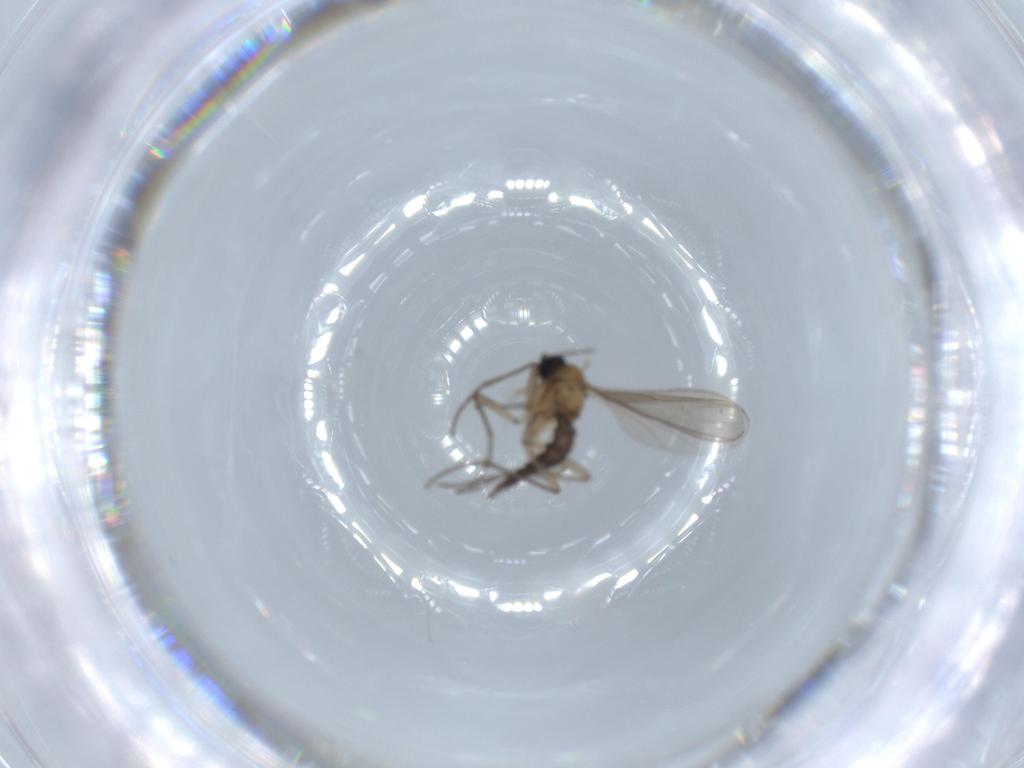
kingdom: Animalia
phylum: Arthropoda
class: Insecta
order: Diptera
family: Sciaridae
